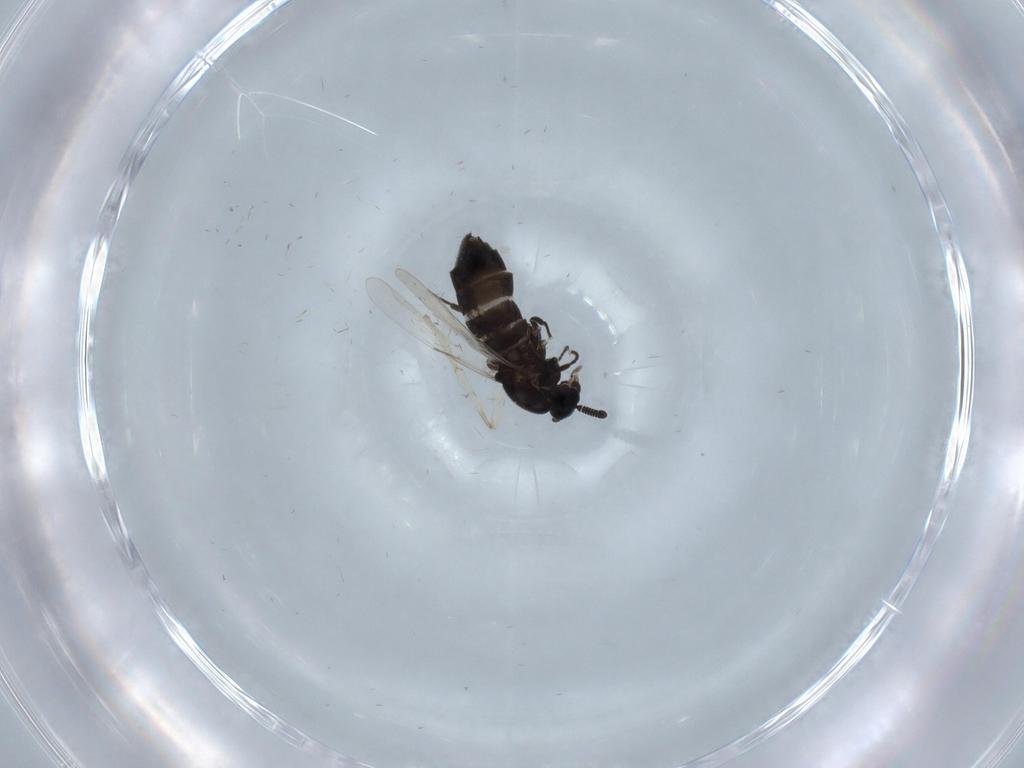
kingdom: Animalia
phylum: Arthropoda
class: Insecta
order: Diptera
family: Scatopsidae
